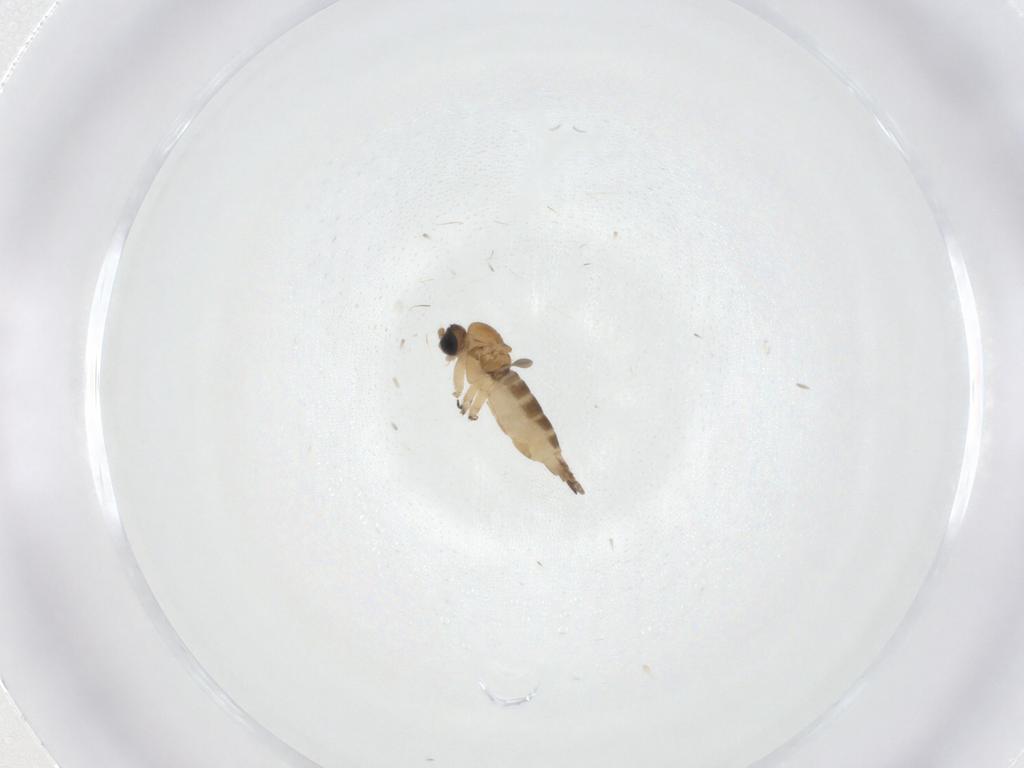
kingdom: Animalia
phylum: Arthropoda
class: Insecta
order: Diptera
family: Sciaridae
